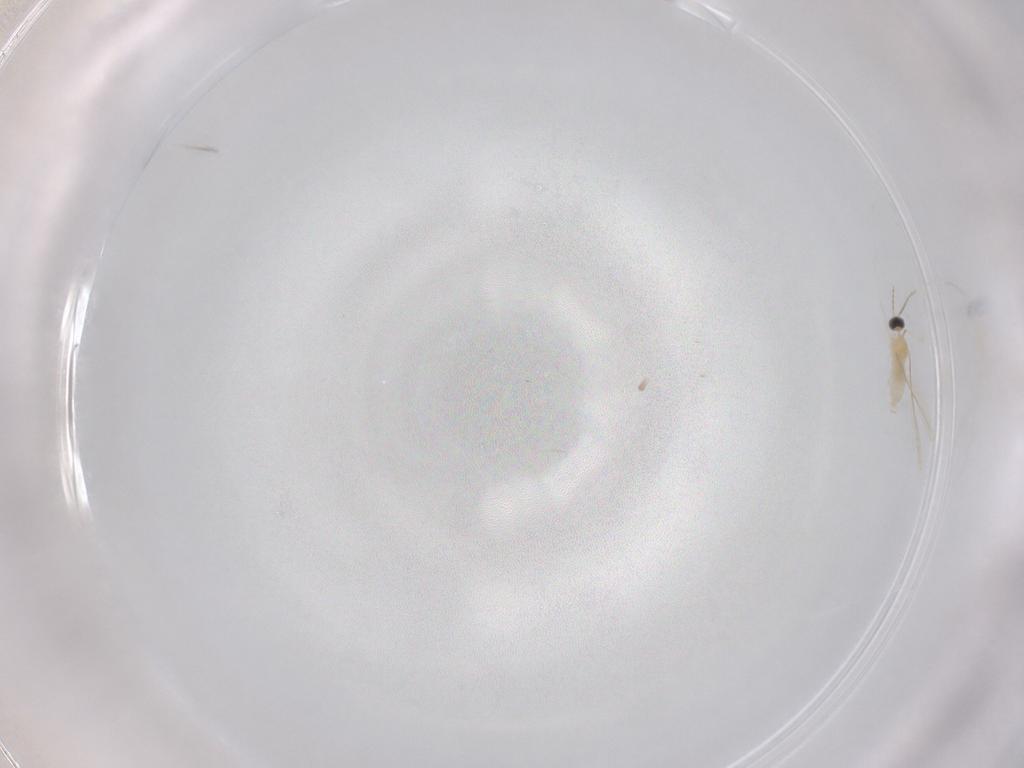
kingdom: Animalia
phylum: Arthropoda
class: Insecta
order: Diptera
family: Cecidomyiidae
